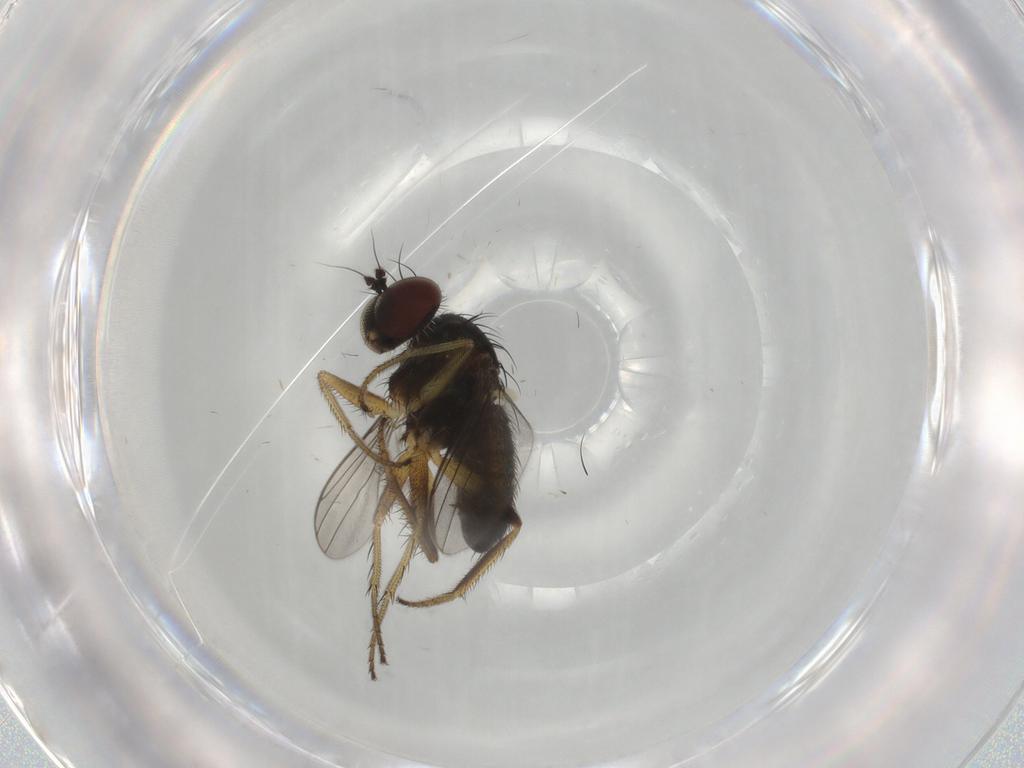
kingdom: Animalia
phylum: Arthropoda
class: Insecta
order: Diptera
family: Dolichopodidae
